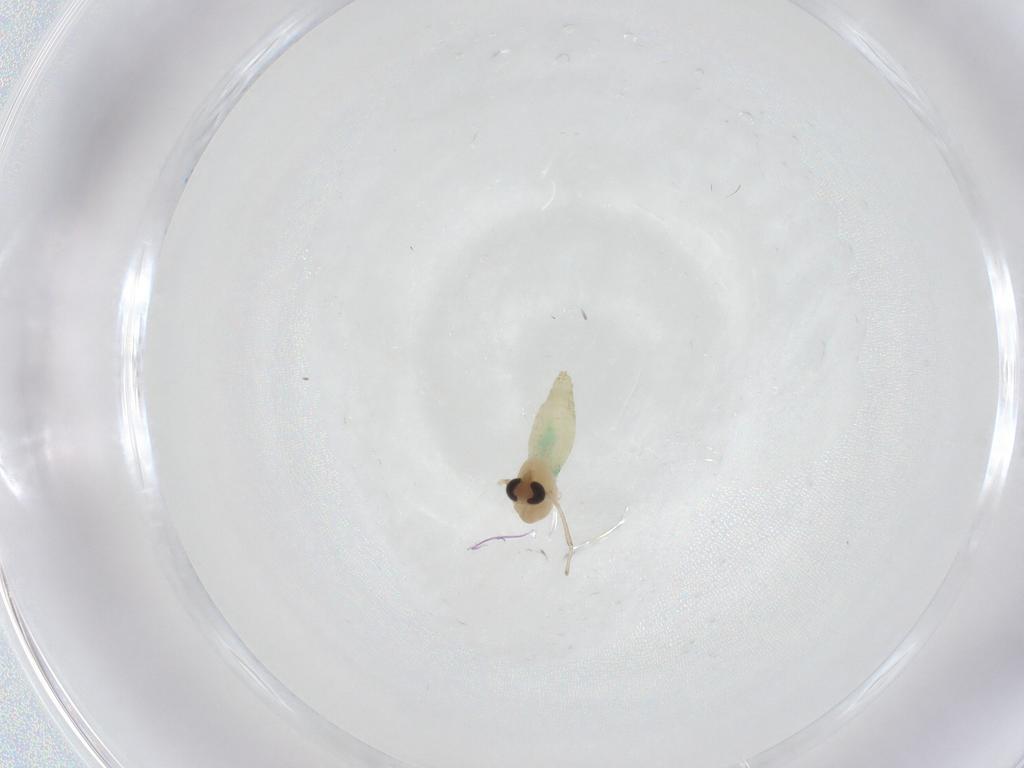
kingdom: Animalia
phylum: Arthropoda
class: Insecta
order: Diptera
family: Chironomidae
